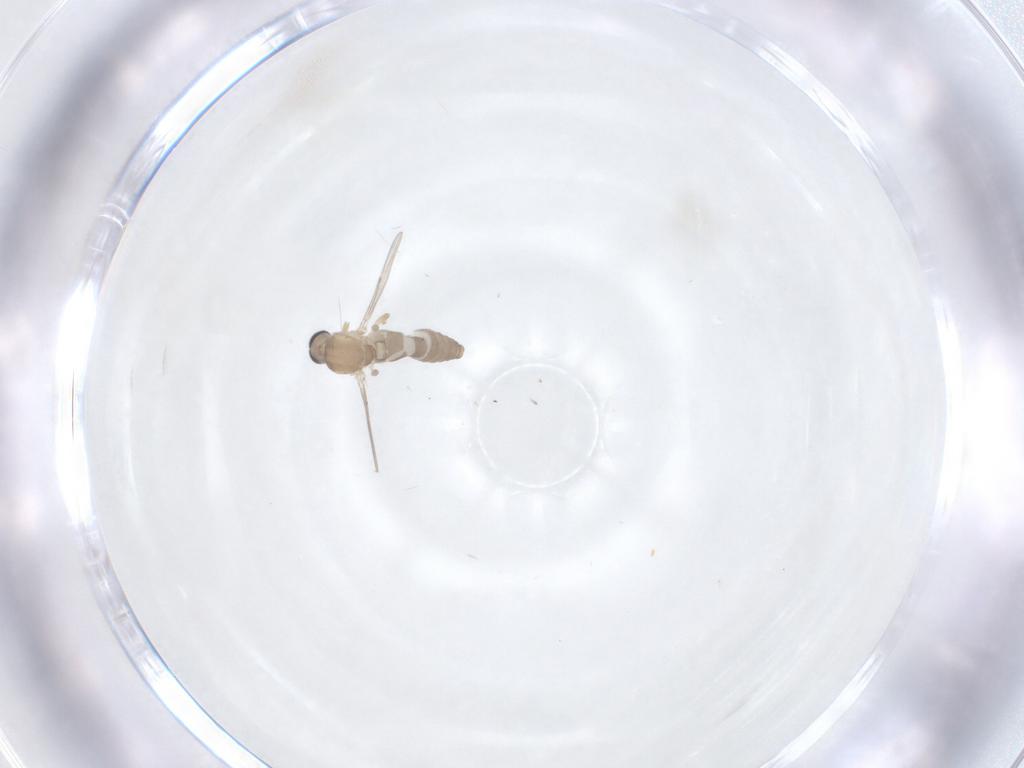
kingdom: Animalia
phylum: Arthropoda
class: Insecta
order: Diptera
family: Ceratopogonidae
